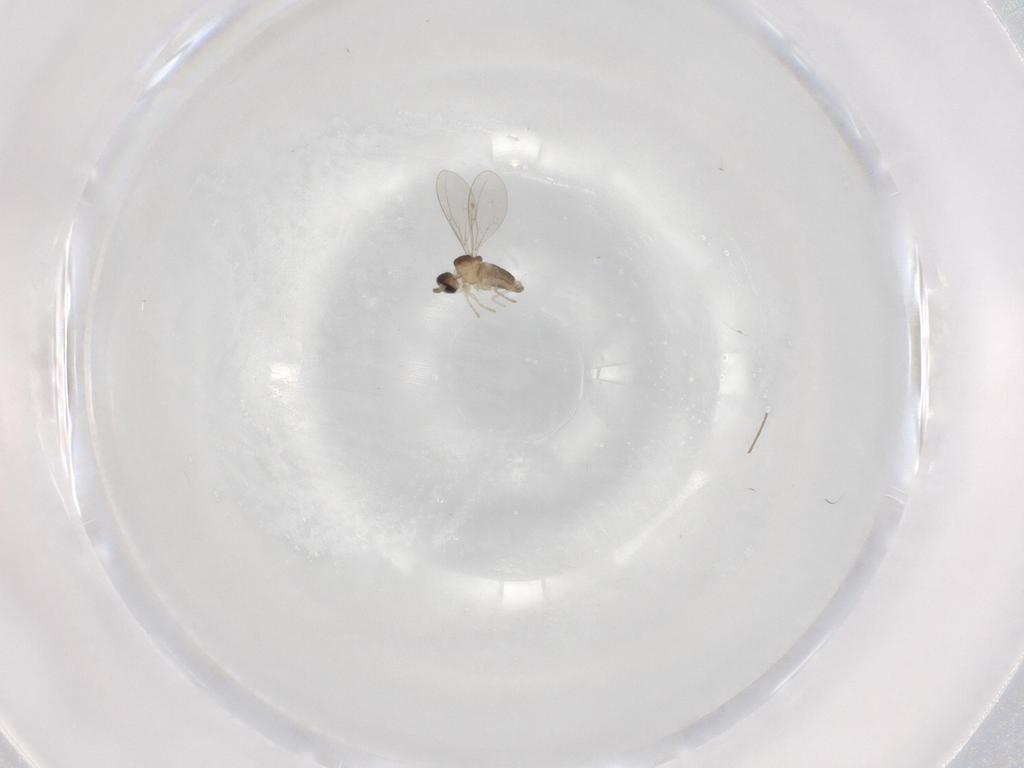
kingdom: Animalia
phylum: Arthropoda
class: Insecta
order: Diptera
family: Cecidomyiidae
